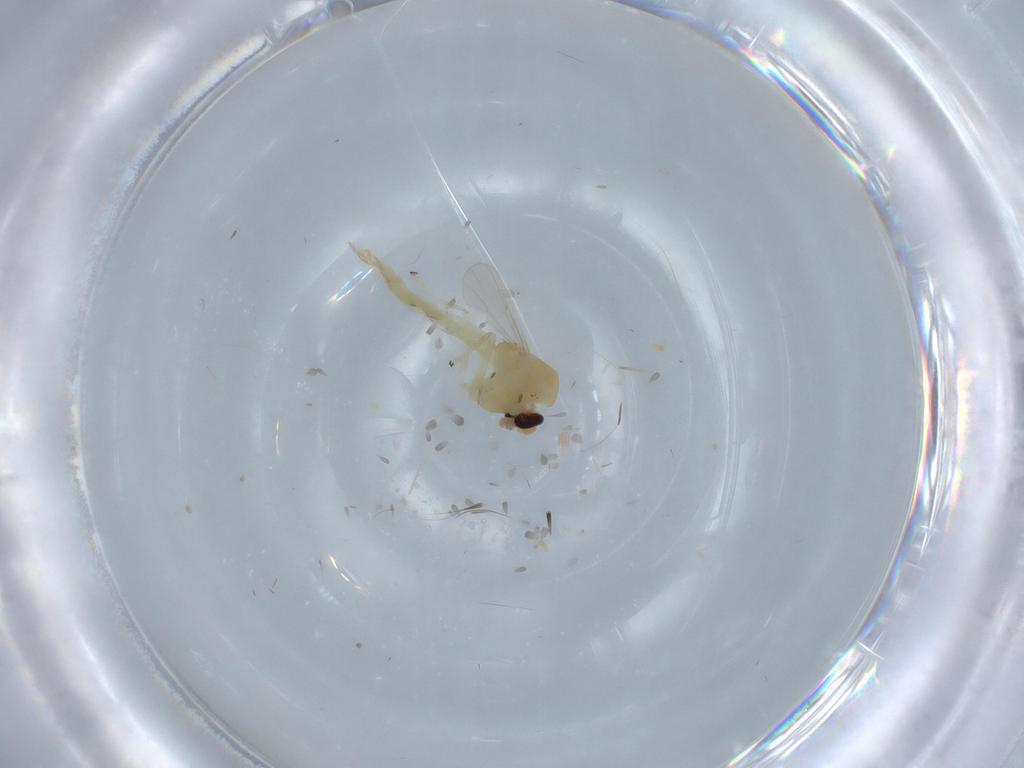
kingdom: Animalia
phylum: Arthropoda
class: Insecta
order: Diptera
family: Chironomidae
